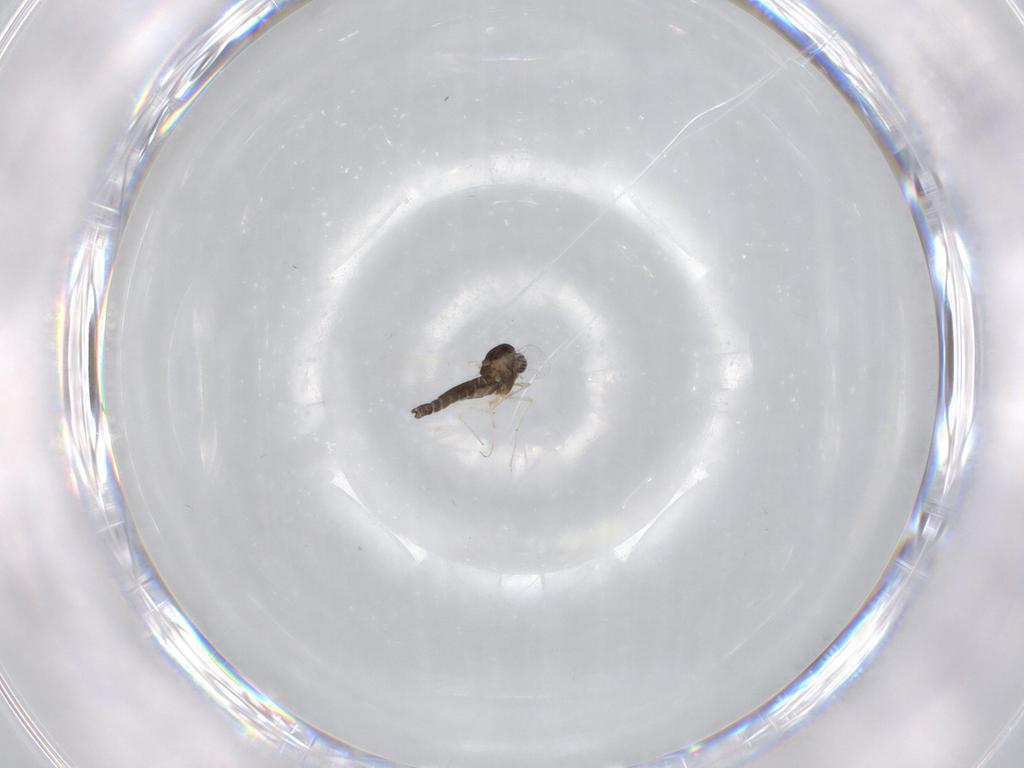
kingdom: Animalia
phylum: Arthropoda
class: Insecta
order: Diptera
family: Chironomidae
